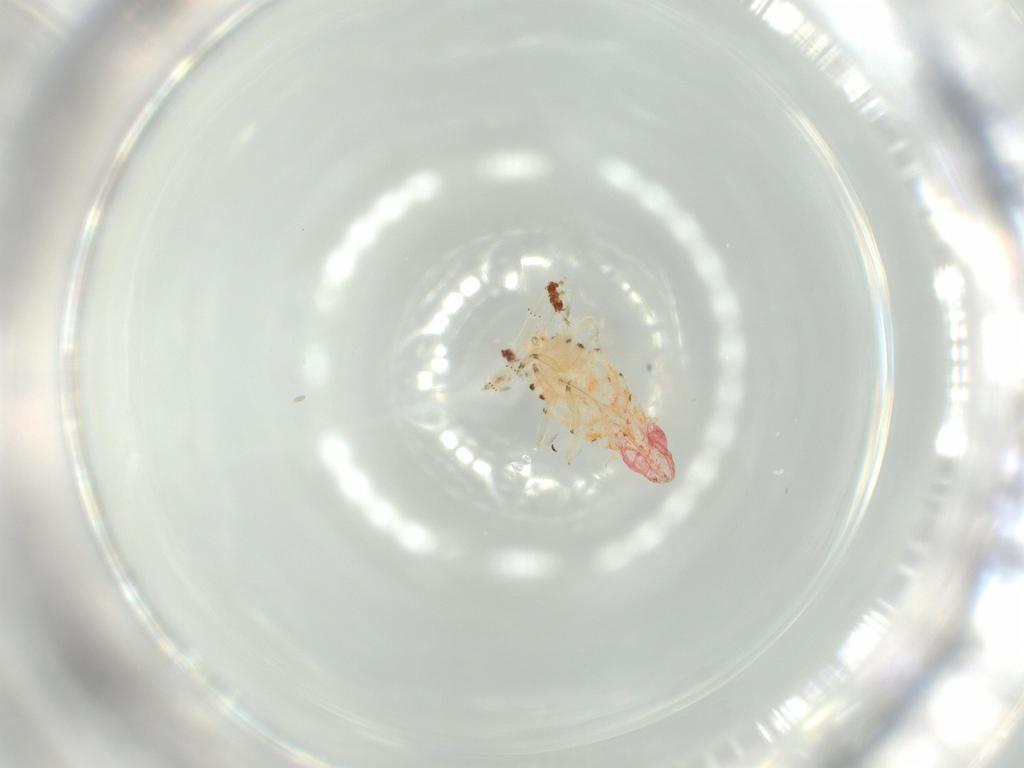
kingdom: Animalia
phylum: Arthropoda
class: Insecta
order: Hemiptera
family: Tropiduchidae
